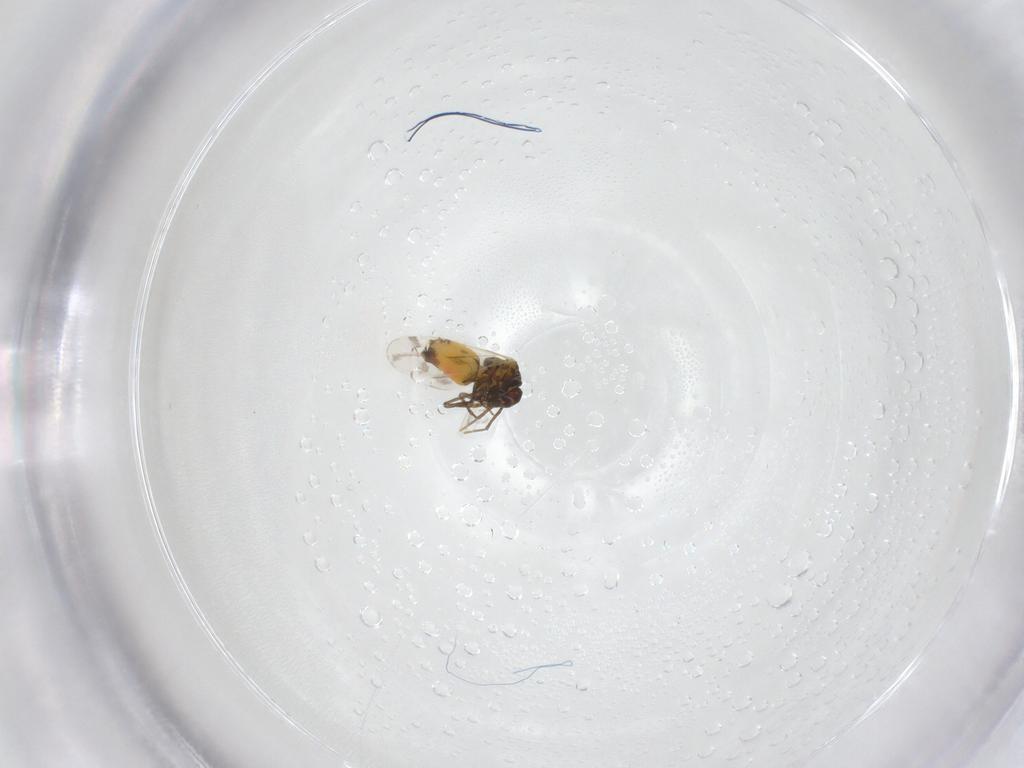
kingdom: Animalia
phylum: Arthropoda
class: Insecta
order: Hemiptera
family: Aleyrodidae
